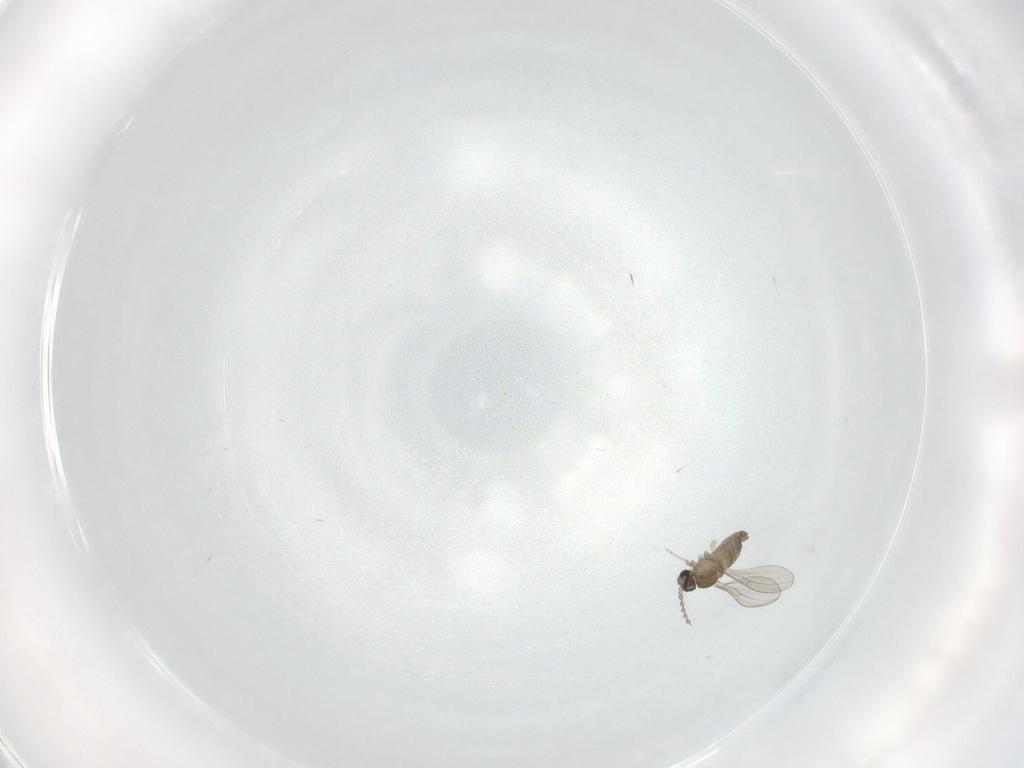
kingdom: Animalia
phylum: Arthropoda
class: Insecta
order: Diptera
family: Cecidomyiidae
